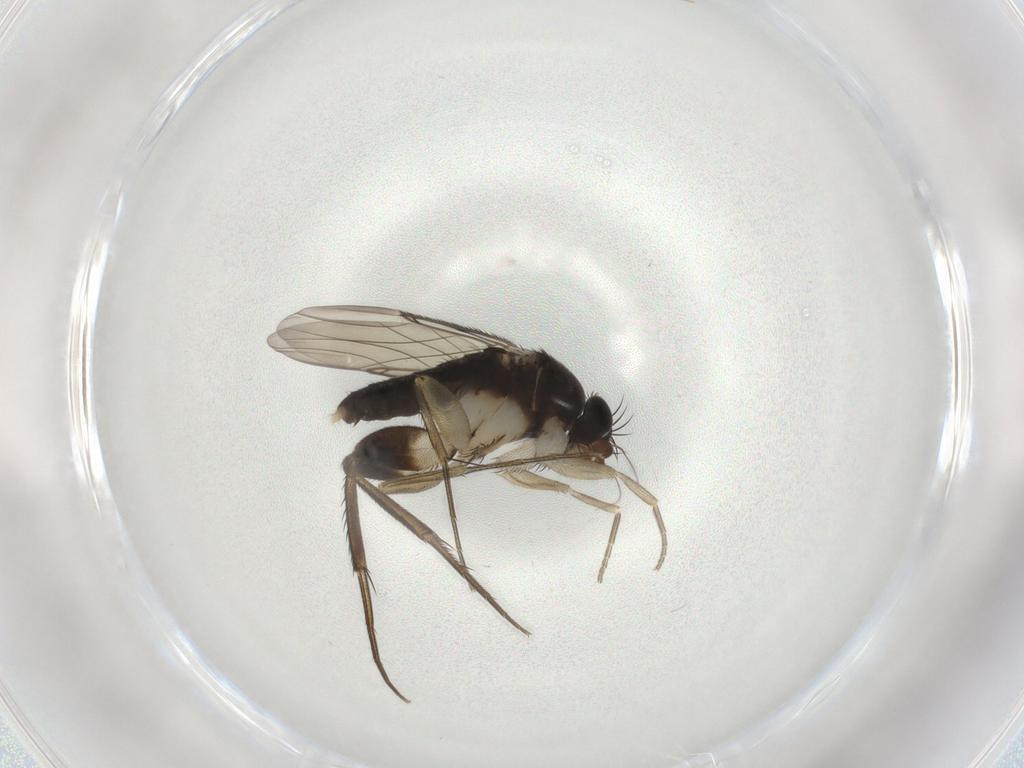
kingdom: Animalia
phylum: Arthropoda
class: Insecta
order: Diptera
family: Phoridae
